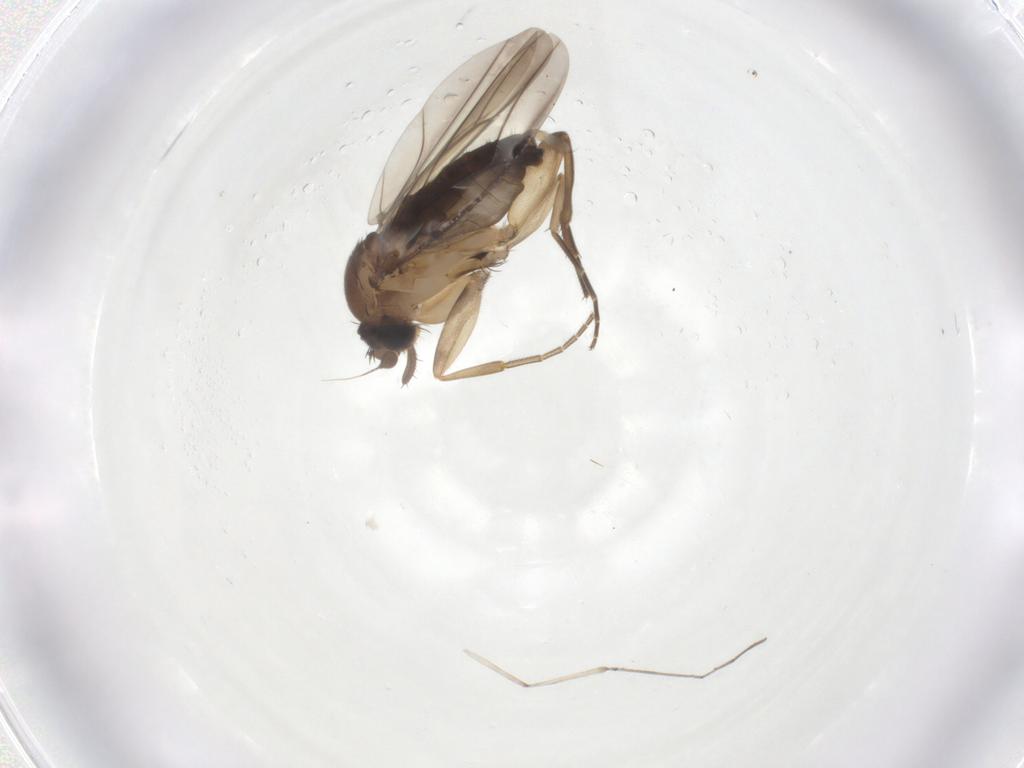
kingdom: Animalia
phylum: Arthropoda
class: Insecta
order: Diptera
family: Phoridae
